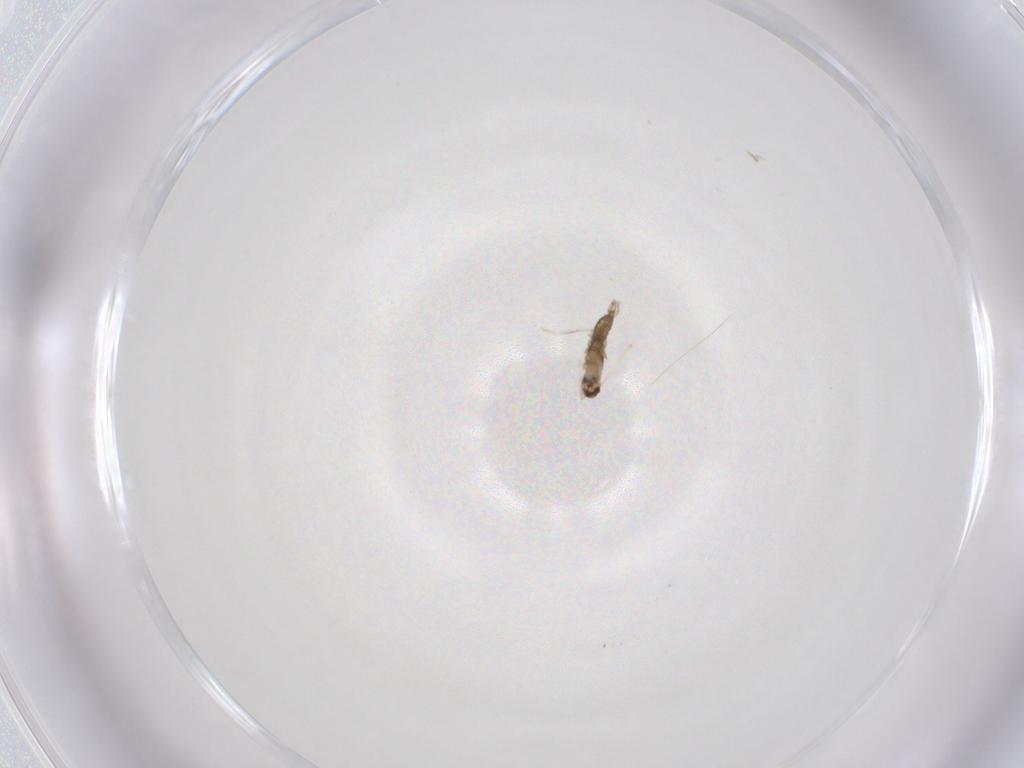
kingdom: Animalia
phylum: Arthropoda
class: Insecta
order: Diptera
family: Cecidomyiidae
